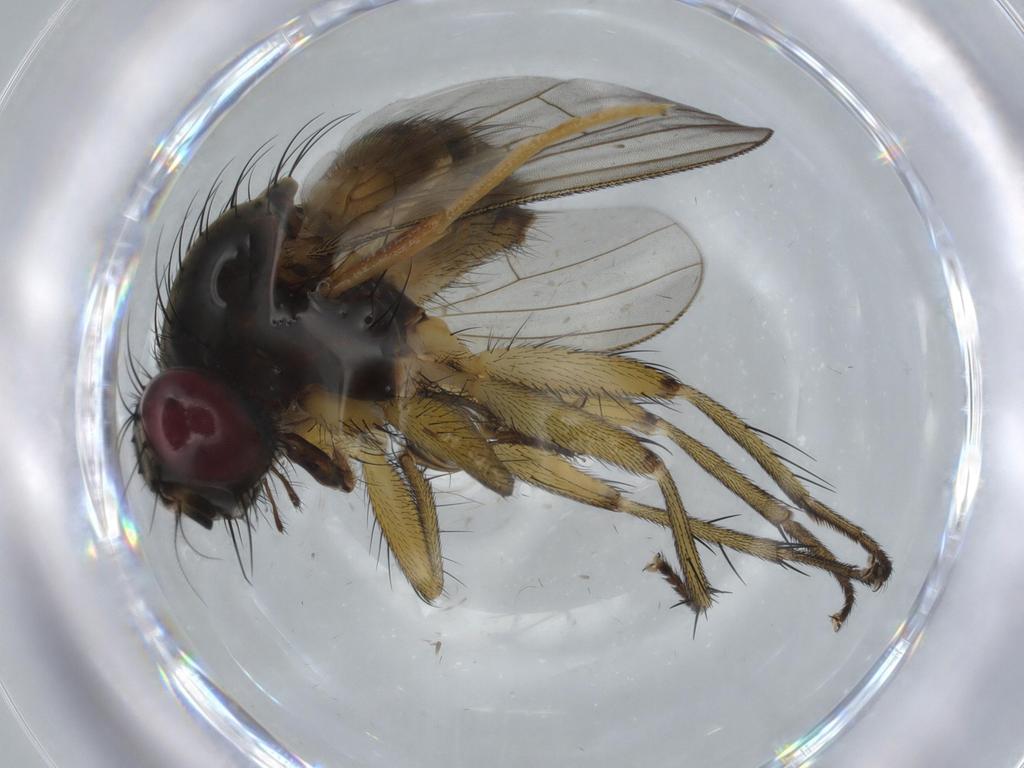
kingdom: Animalia
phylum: Arthropoda
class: Insecta
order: Diptera
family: Muscidae
